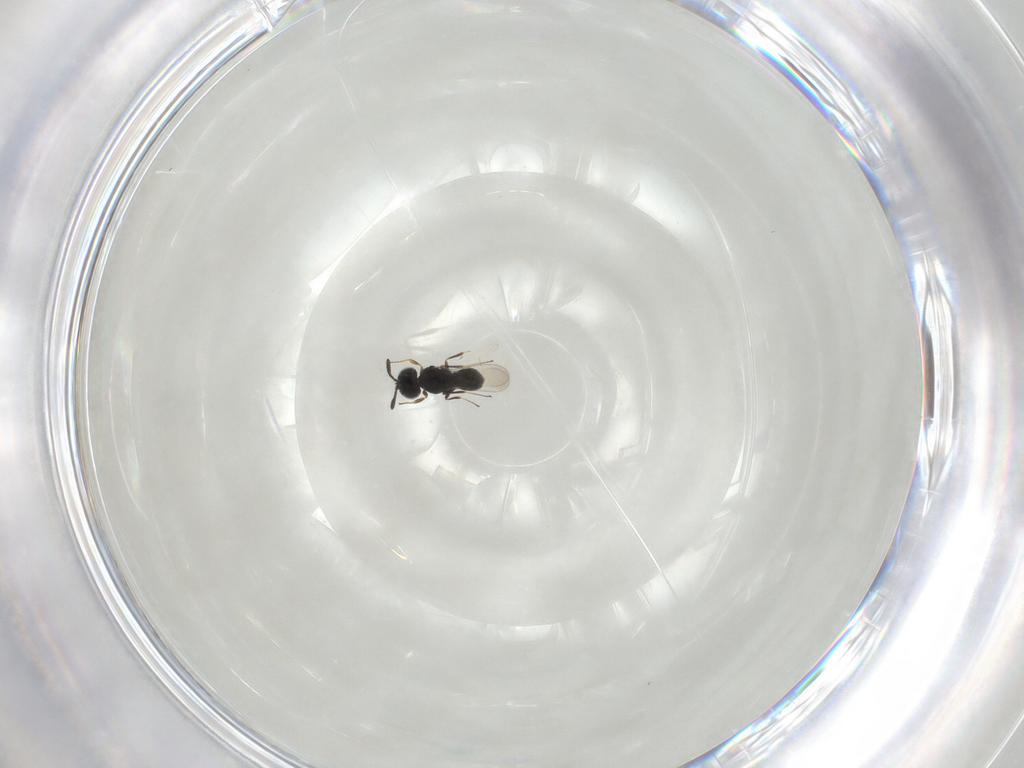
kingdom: Animalia
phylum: Arthropoda
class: Insecta
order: Hymenoptera
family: Scelionidae
